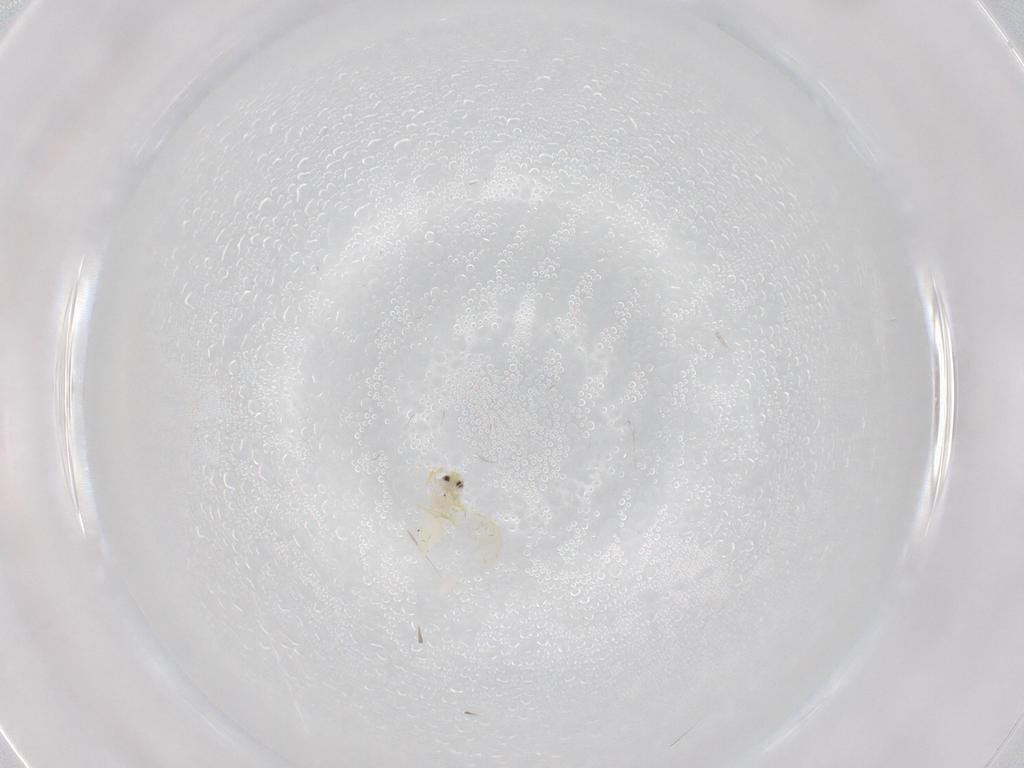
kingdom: Animalia
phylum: Arthropoda
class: Insecta
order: Hemiptera
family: Aleyrodidae
